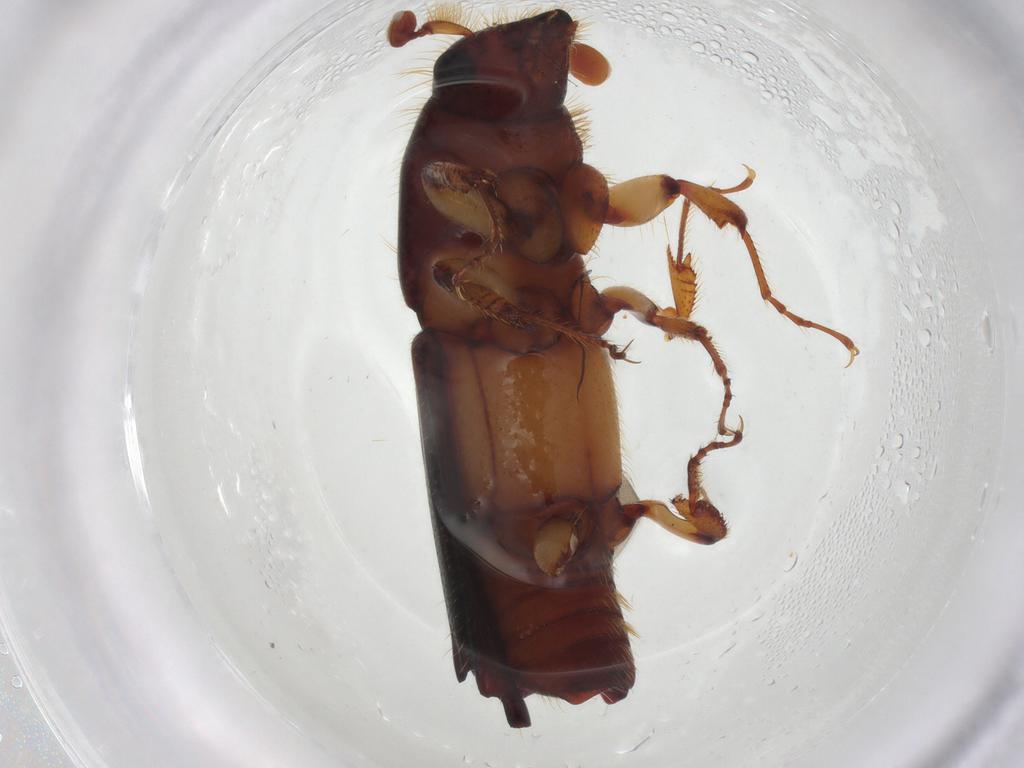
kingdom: Animalia
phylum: Arthropoda
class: Insecta
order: Coleoptera
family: Curculionidae
